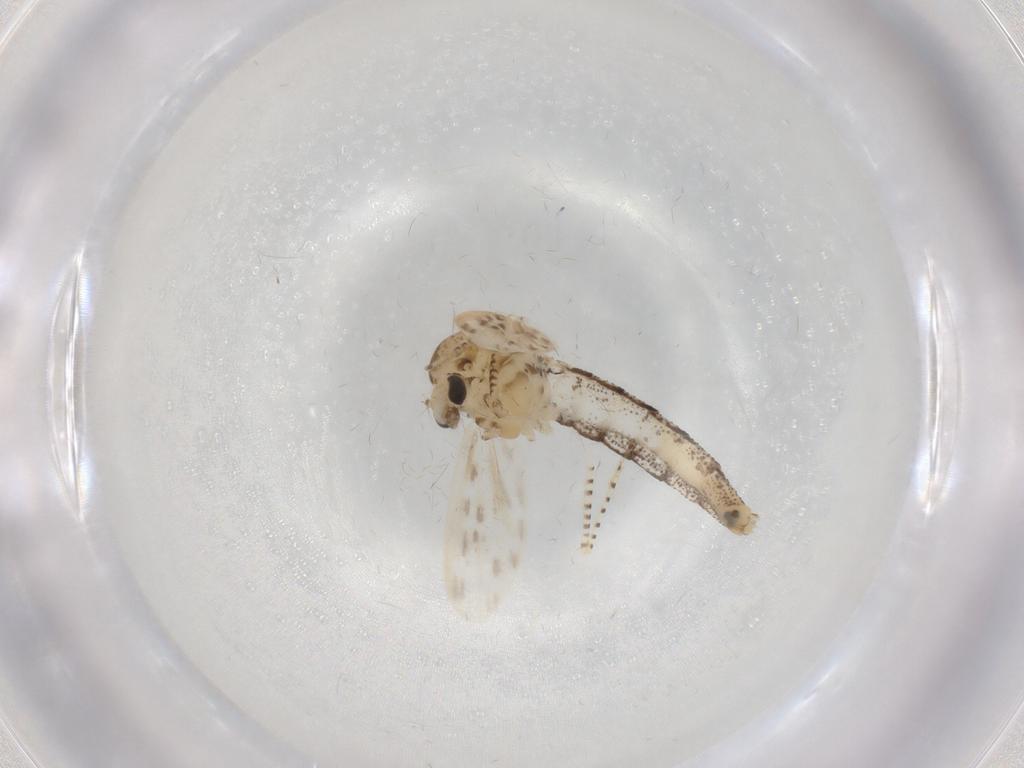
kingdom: Animalia
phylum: Arthropoda
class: Insecta
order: Diptera
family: Chaoboridae
